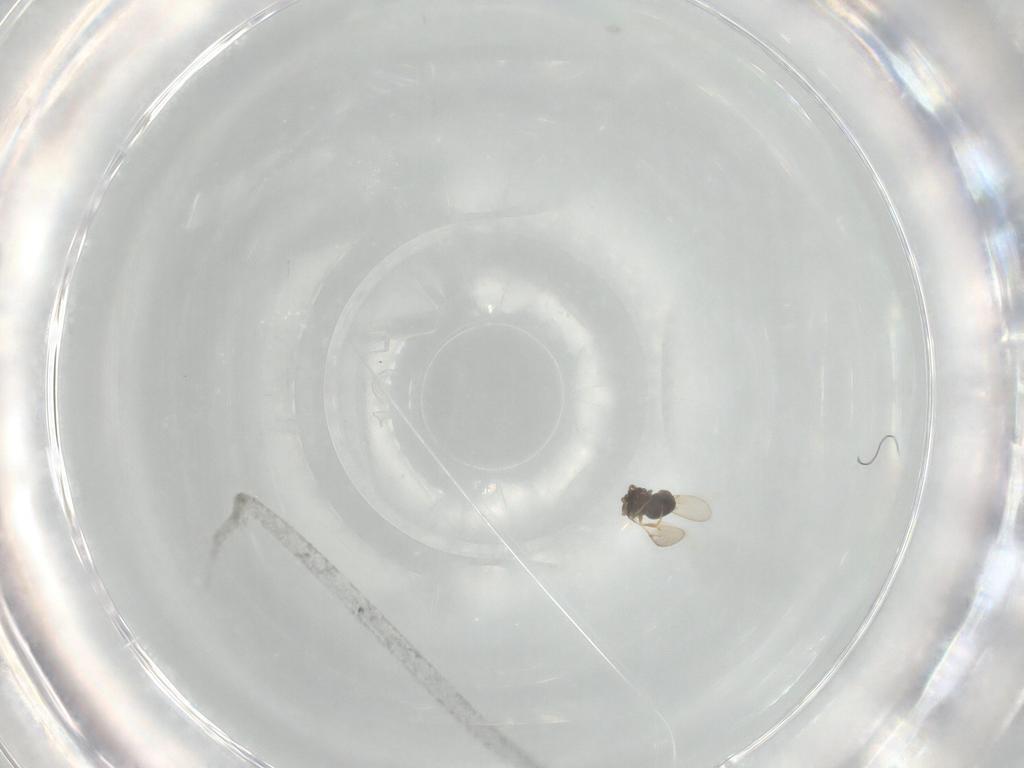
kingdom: Animalia
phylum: Arthropoda
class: Insecta
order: Hymenoptera
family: Scelionidae
